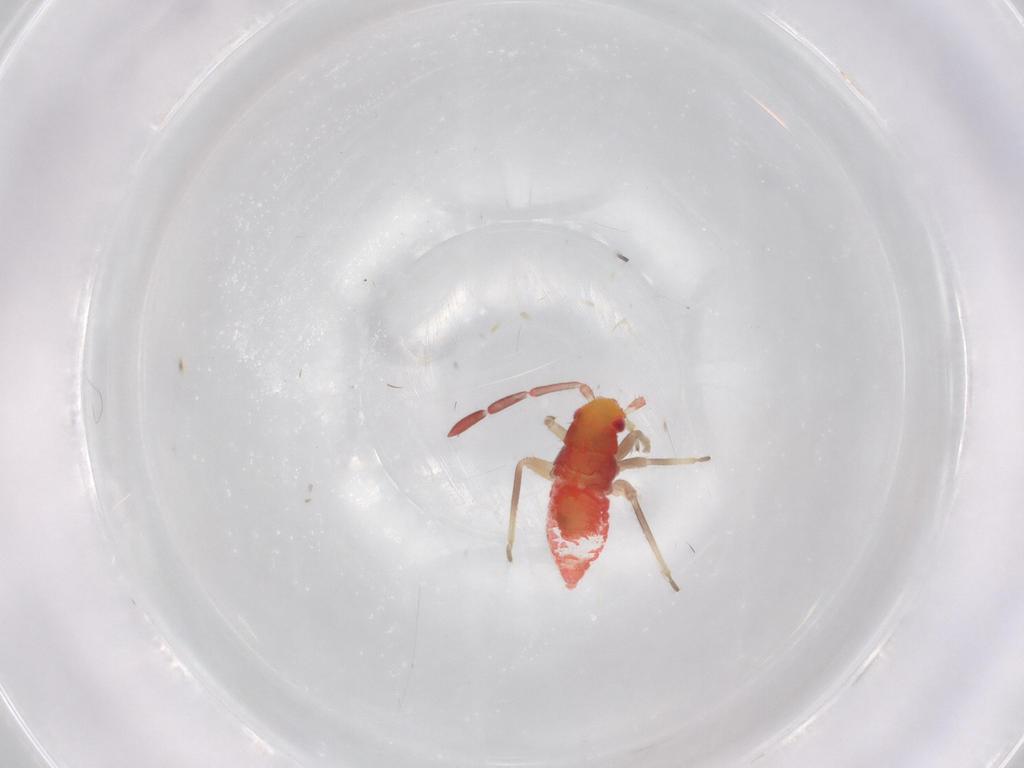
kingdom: Animalia
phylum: Arthropoda
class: Insecta
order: Hemiptera
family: Miridae
